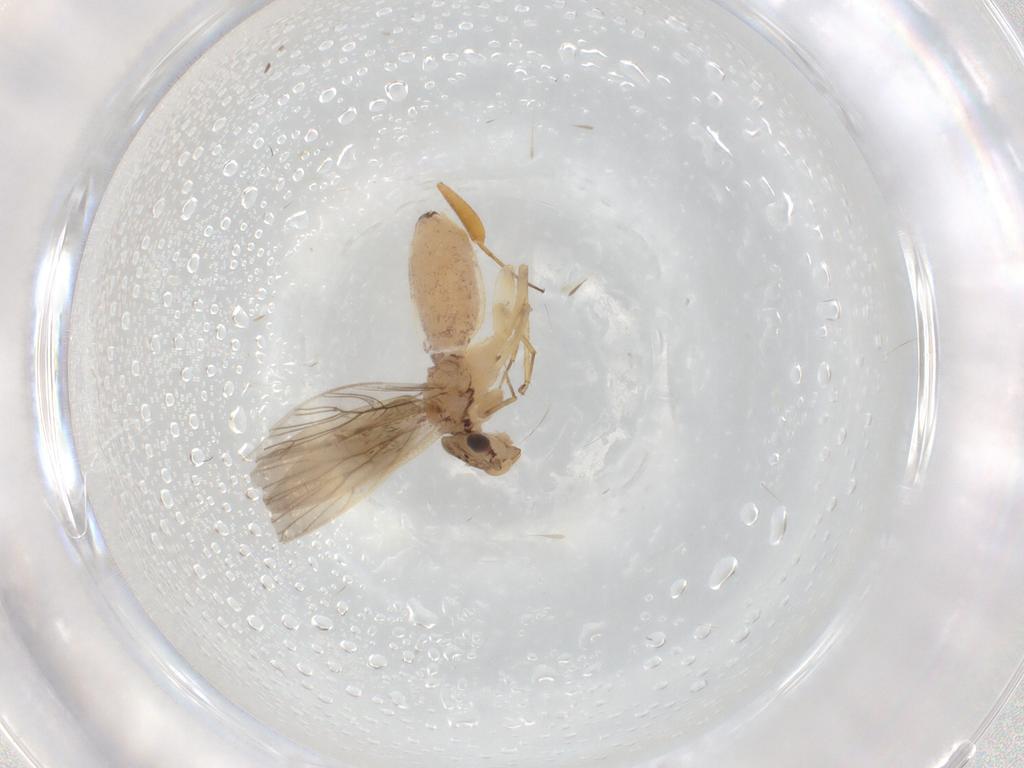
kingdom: Animalia
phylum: Arthropoda
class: Insecta
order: Psocodea
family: Lepidopsocidae
